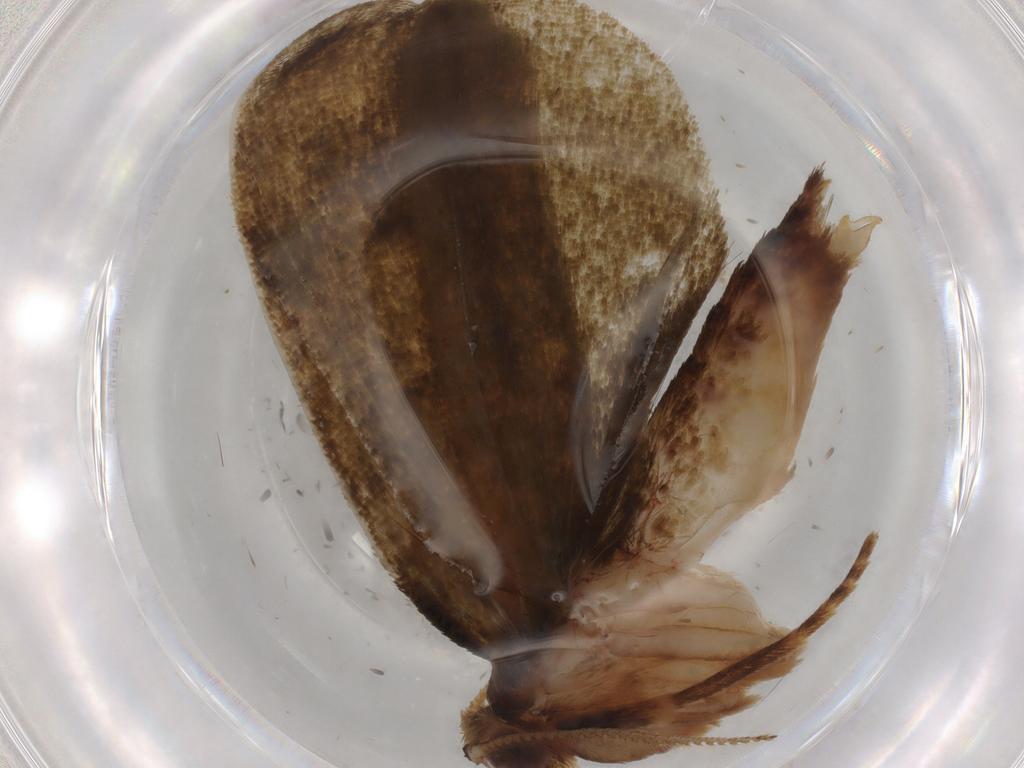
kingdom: Animalia
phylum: Arthropoda
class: Insecta
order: Lepidoptera
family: Geometridae
